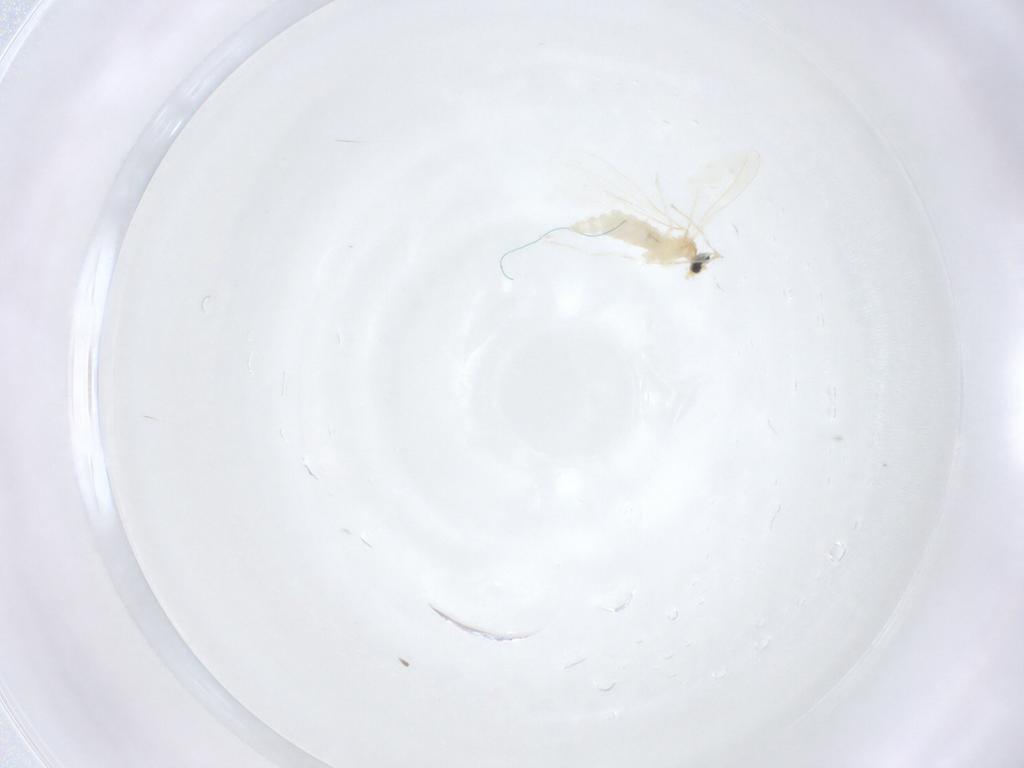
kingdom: Animalia
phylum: Arthropoda
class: Insecta
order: Diptera
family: Cecidomyiidae
